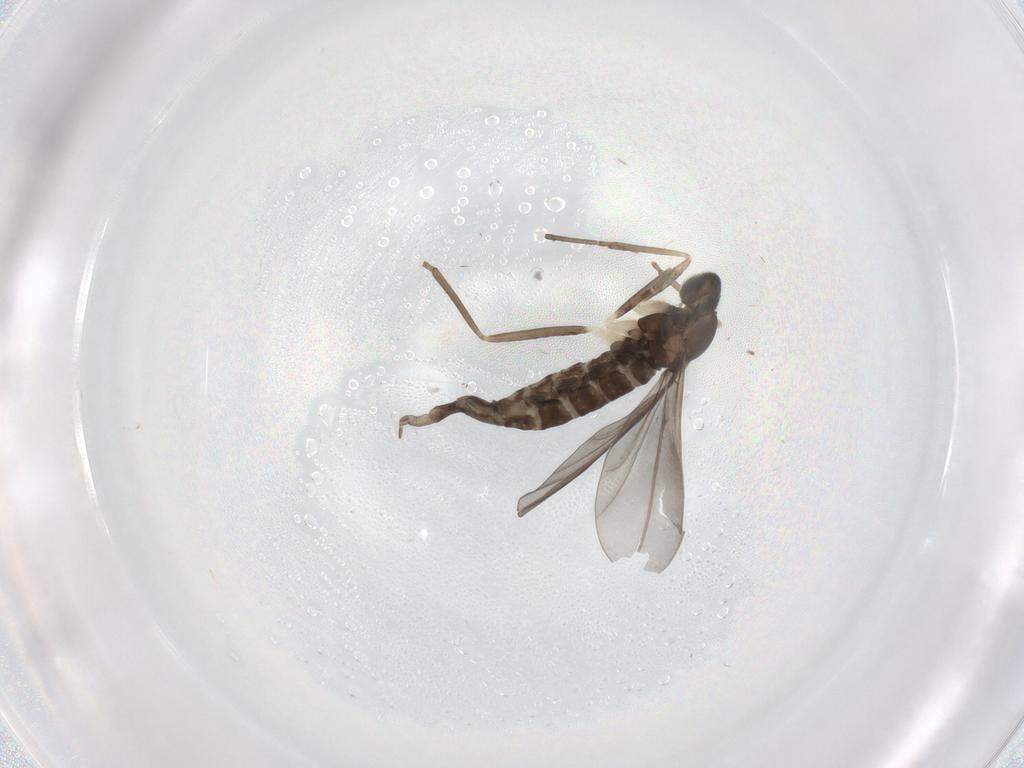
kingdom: Animalia
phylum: Arthropoda
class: Insecta
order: Diptera
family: Cecidomyiidae
